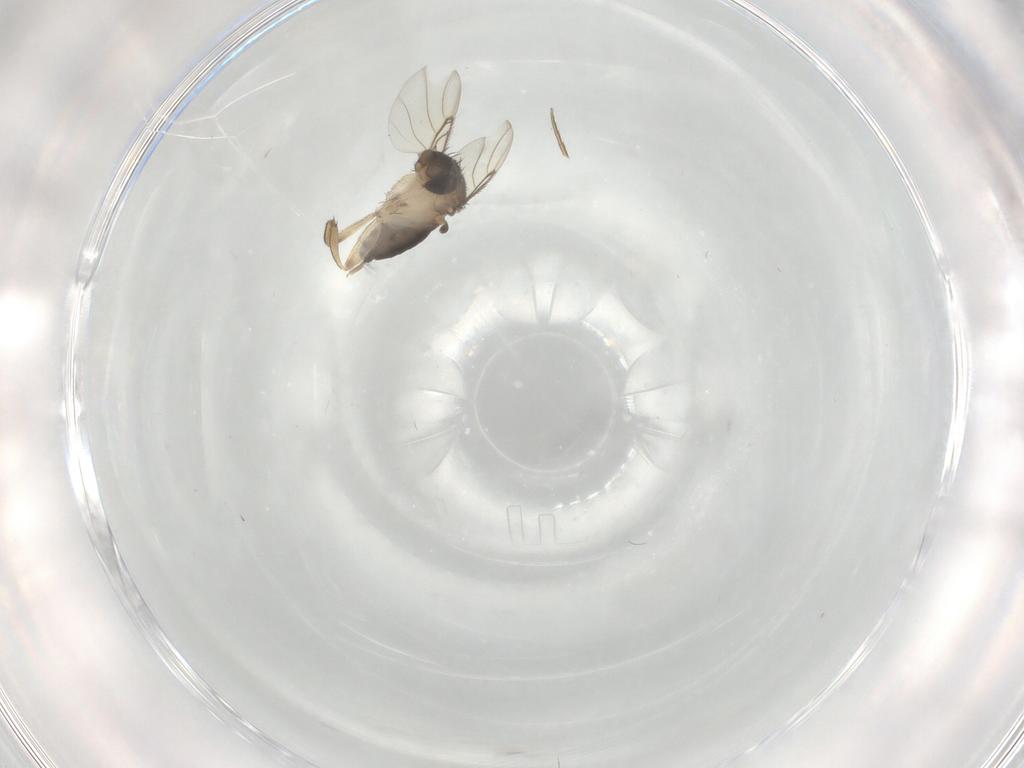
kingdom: Animalia
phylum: Arthropoda
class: Insecta
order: Diptera
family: Phoridae
